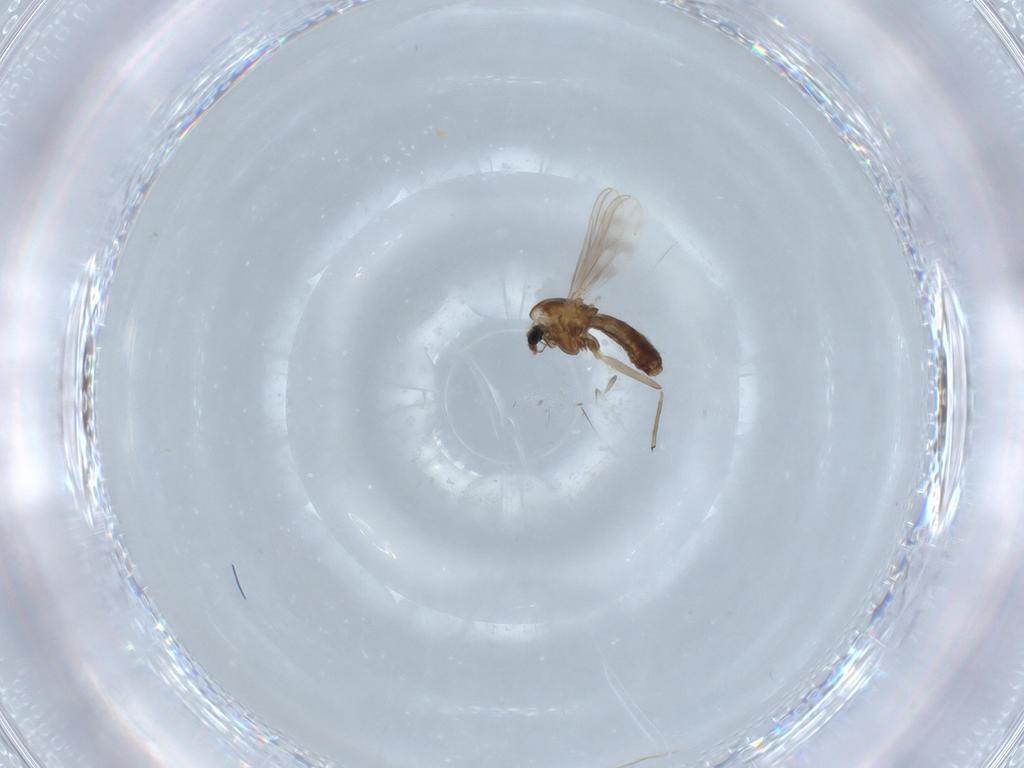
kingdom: Animalia
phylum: Arthropoda
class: Insecta
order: Diptera
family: Chironomidae
